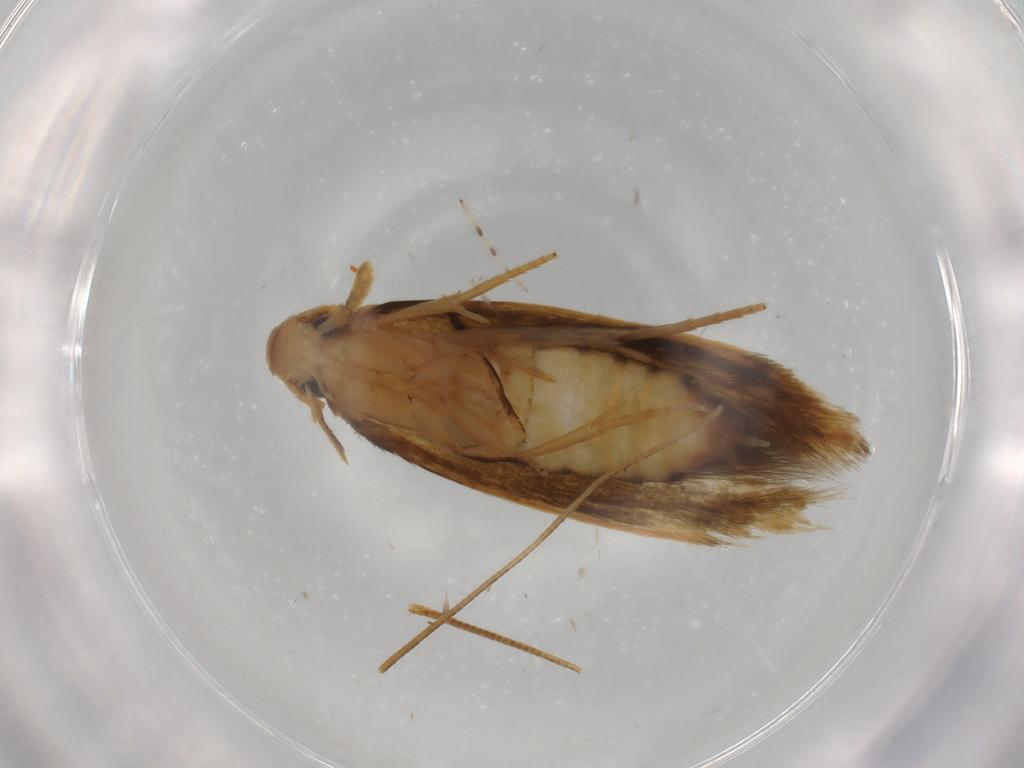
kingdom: Animalia
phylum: Arthropoda
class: Insecta
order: Lepidoptera
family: Tineidae
